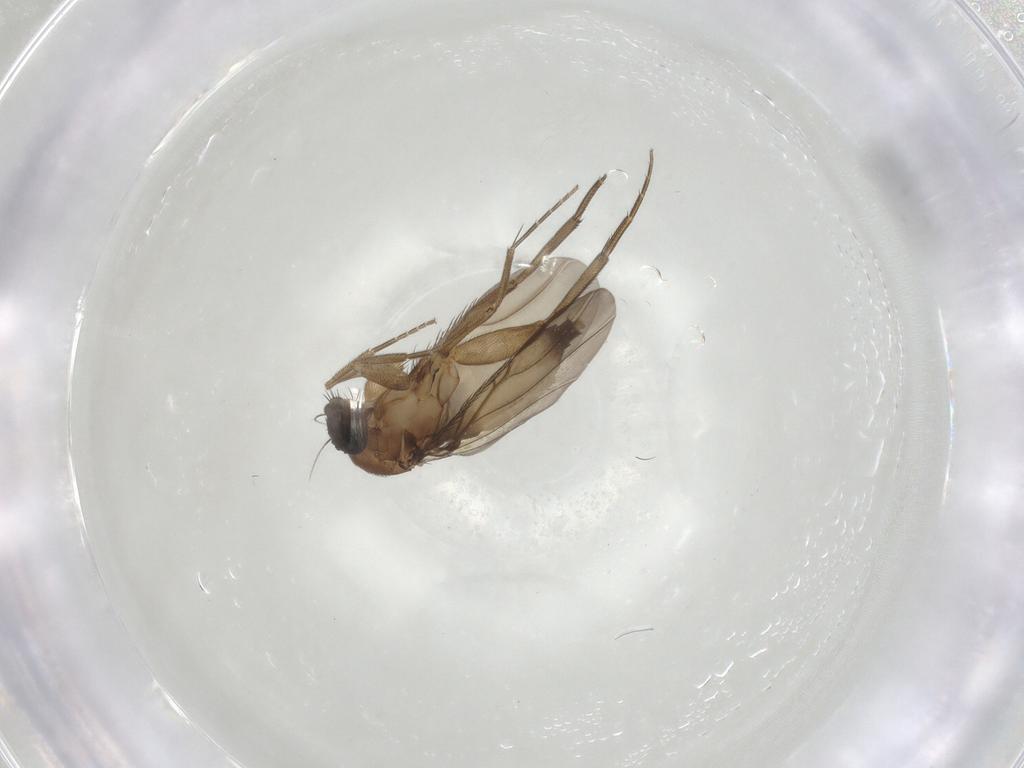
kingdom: Animalia
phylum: Arthropoda
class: Insecta
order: Diptera
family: Phoridae
